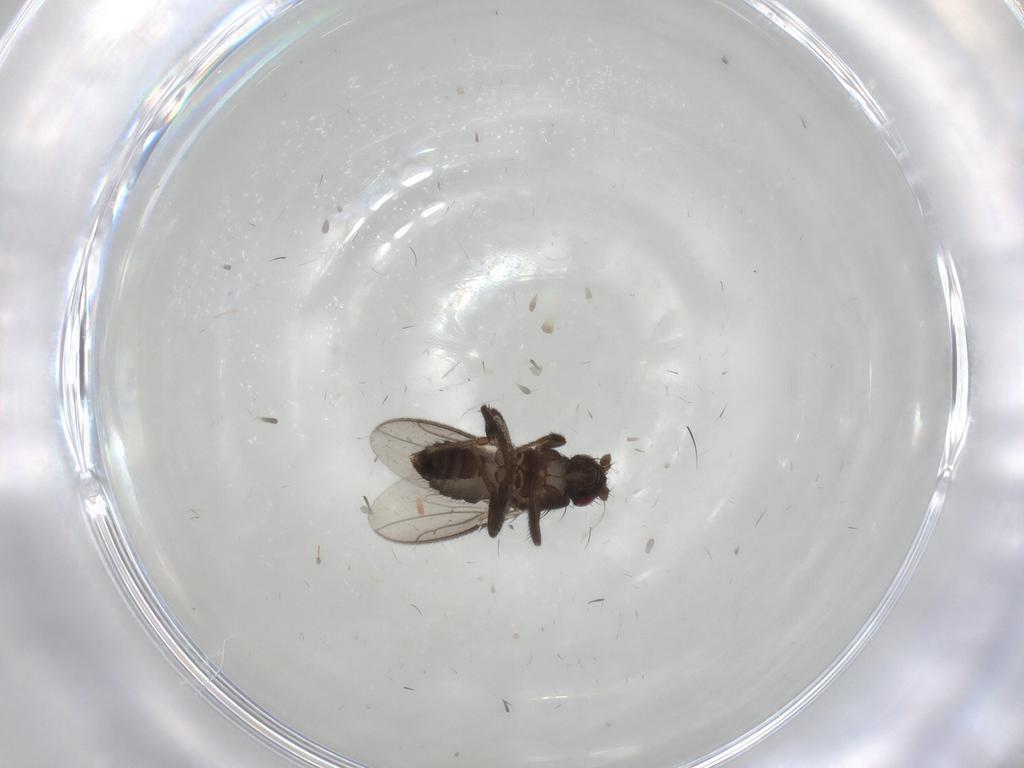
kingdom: Animalia
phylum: Arthropoda
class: Insecta
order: Diptera
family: Sphaeroceridae
